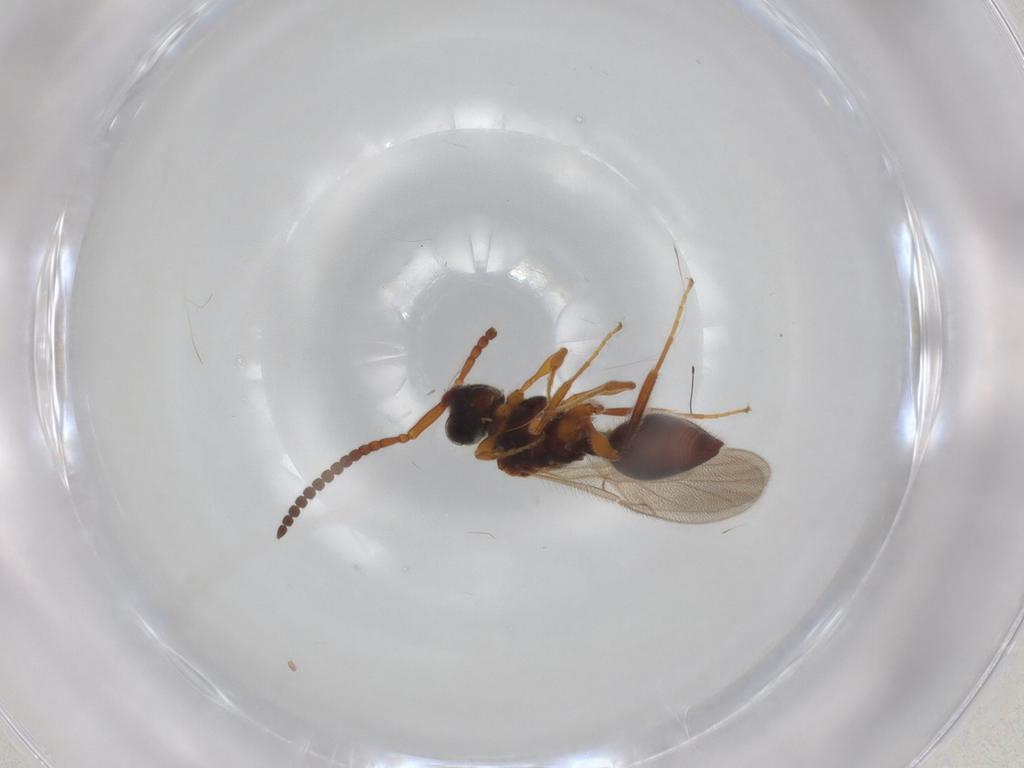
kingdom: Animalia
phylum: Arthropoda
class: Insecta
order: Hymenoptera
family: Diapriidae
